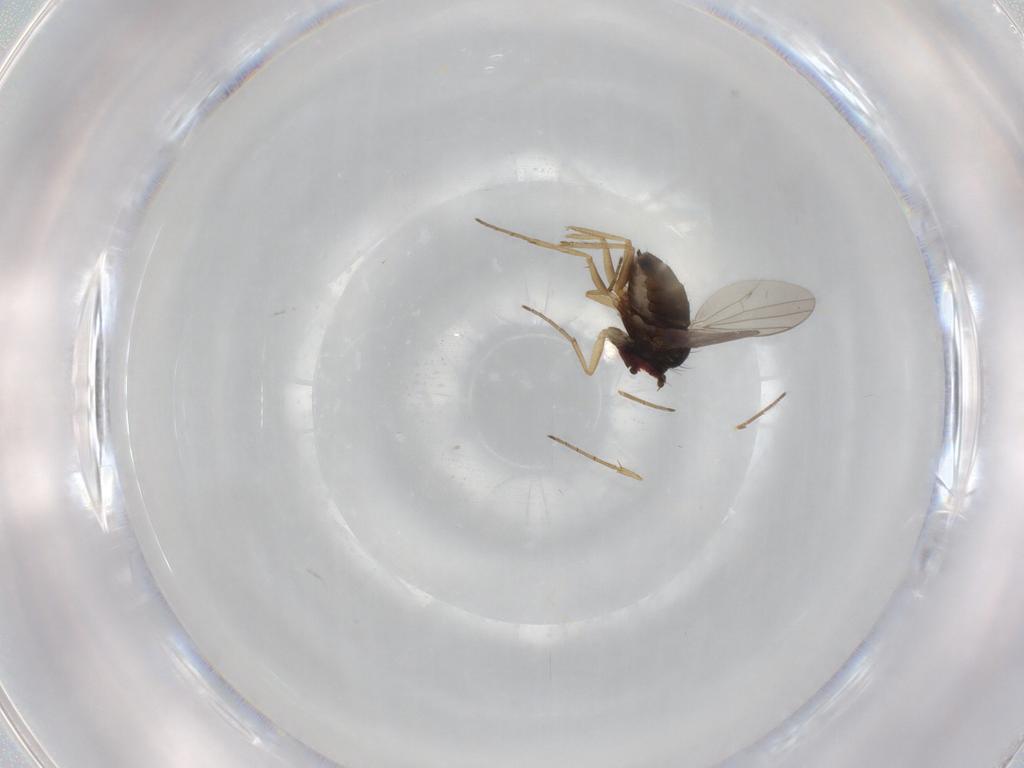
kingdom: Animalia
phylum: Arthropoda
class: Insecta
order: Diptera
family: Dolichopodidae
